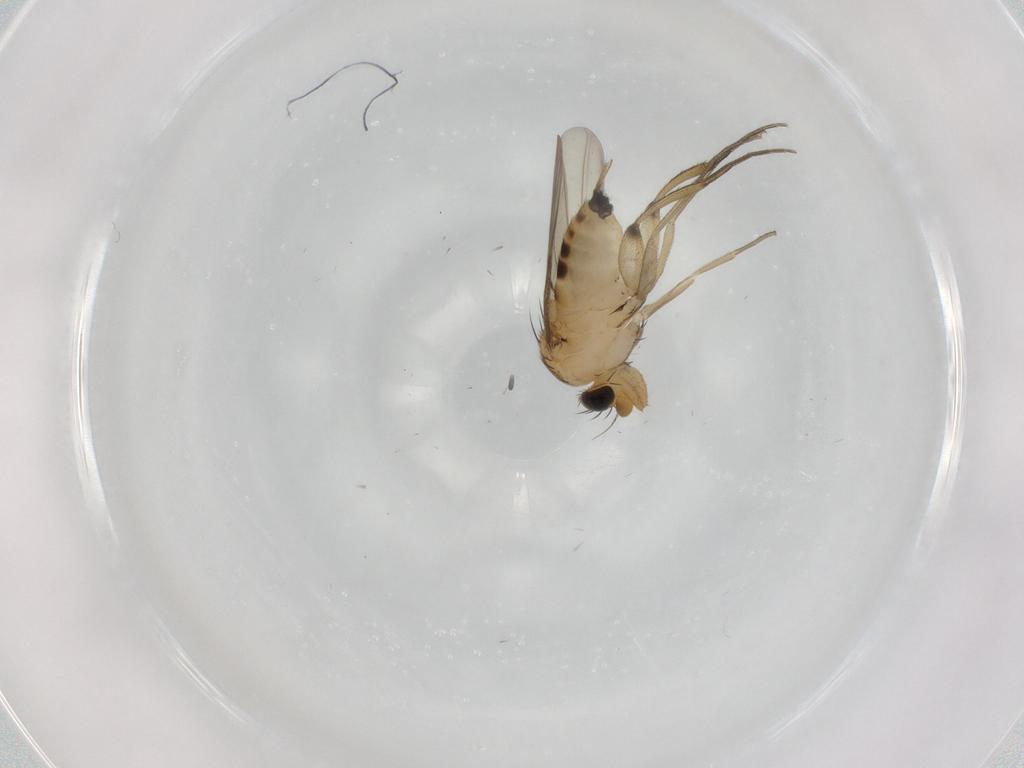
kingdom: Animalia
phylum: Arthropoda
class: Insecta
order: Diptera
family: Phoridae
